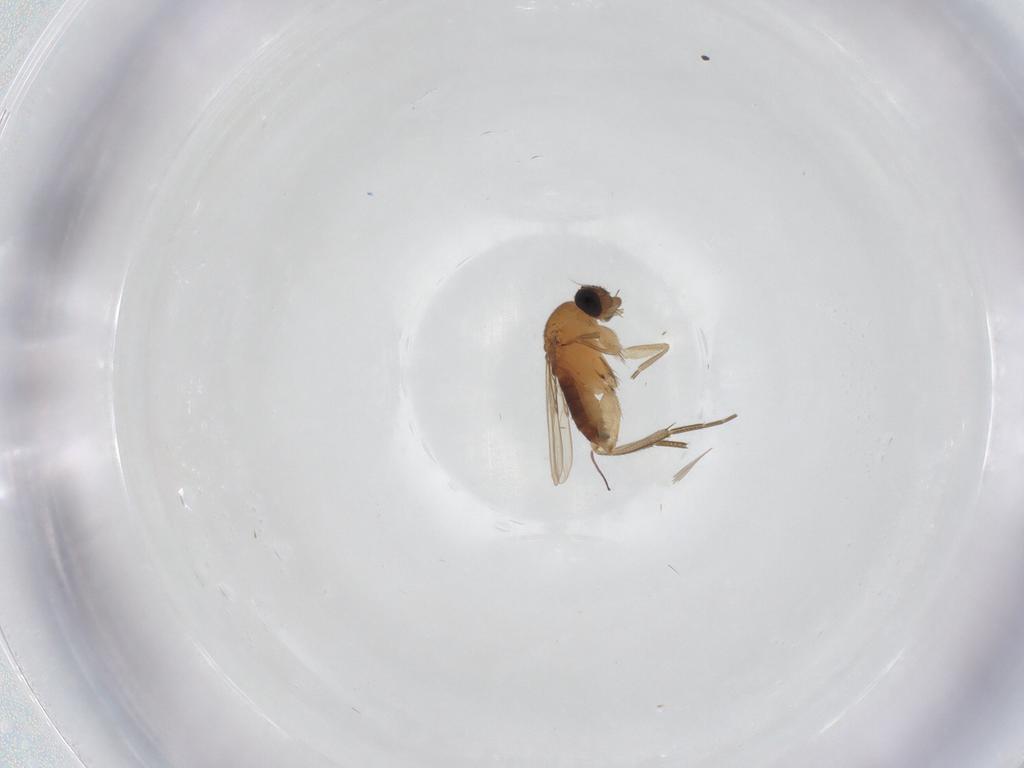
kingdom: Animalia
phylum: Arthropoda
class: Insecta
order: Diptera
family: Phoridae
